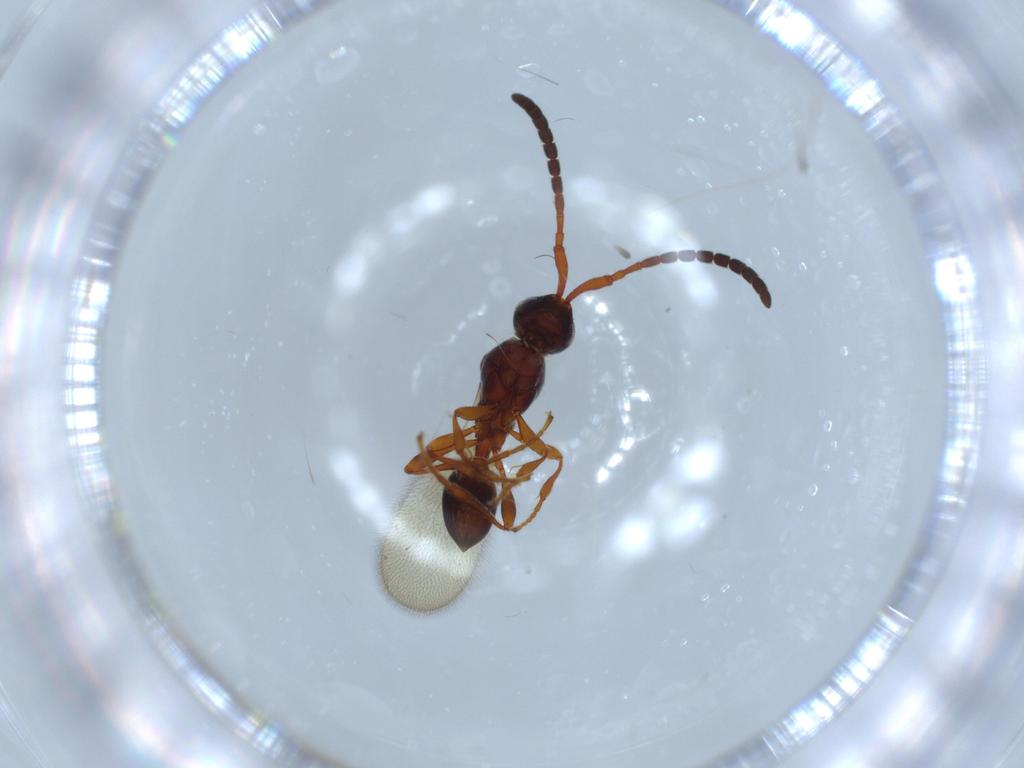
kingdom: Animalia
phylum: Arthropoda
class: Insecta
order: Hymenoptera
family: Diapriidae
